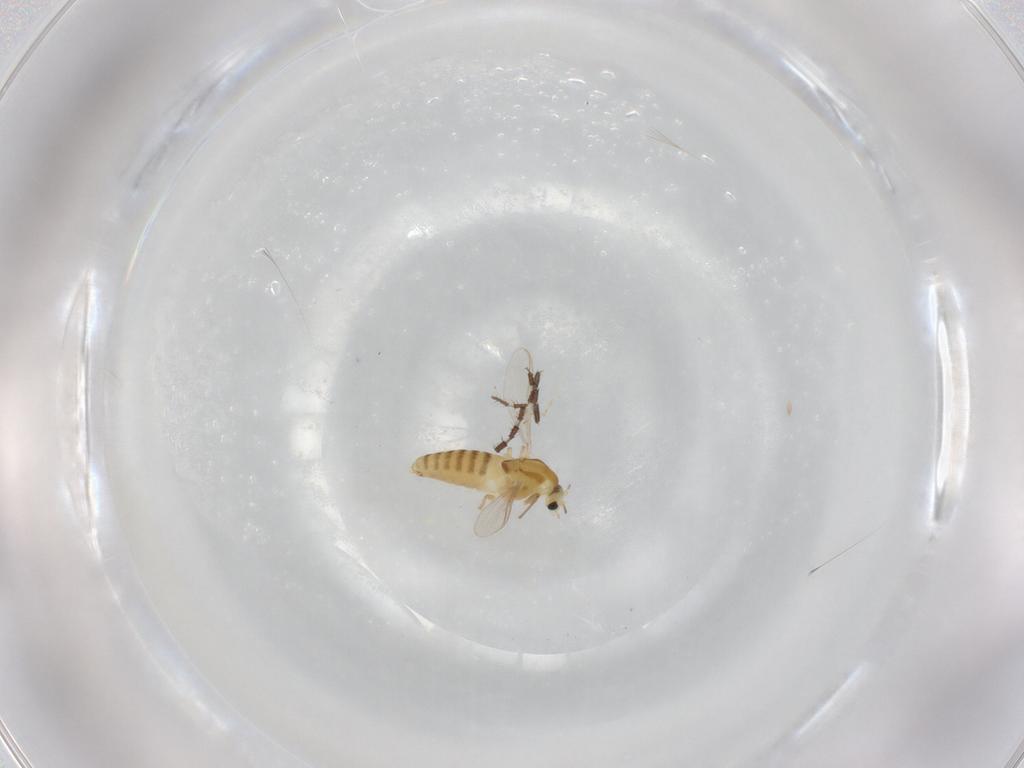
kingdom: Animalia
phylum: Arthropoda
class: Insecta
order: Diptera
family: Chironomidae
